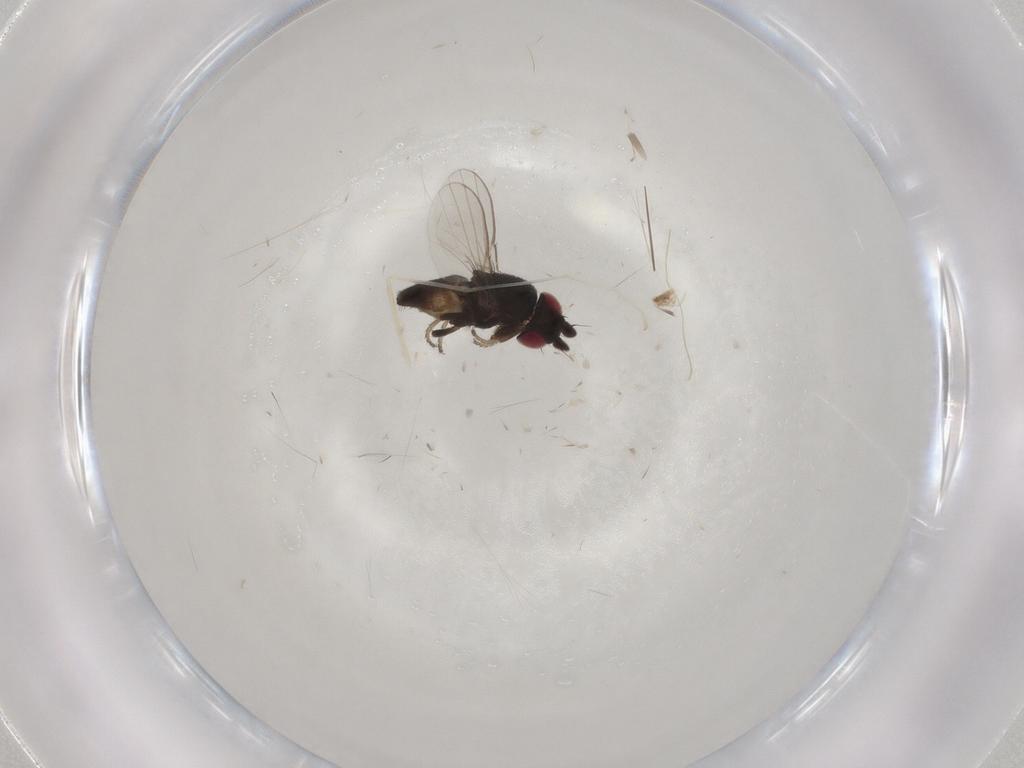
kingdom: Animalia
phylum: Arthropoda
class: Insecta
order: Diptera
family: Milichiidae
